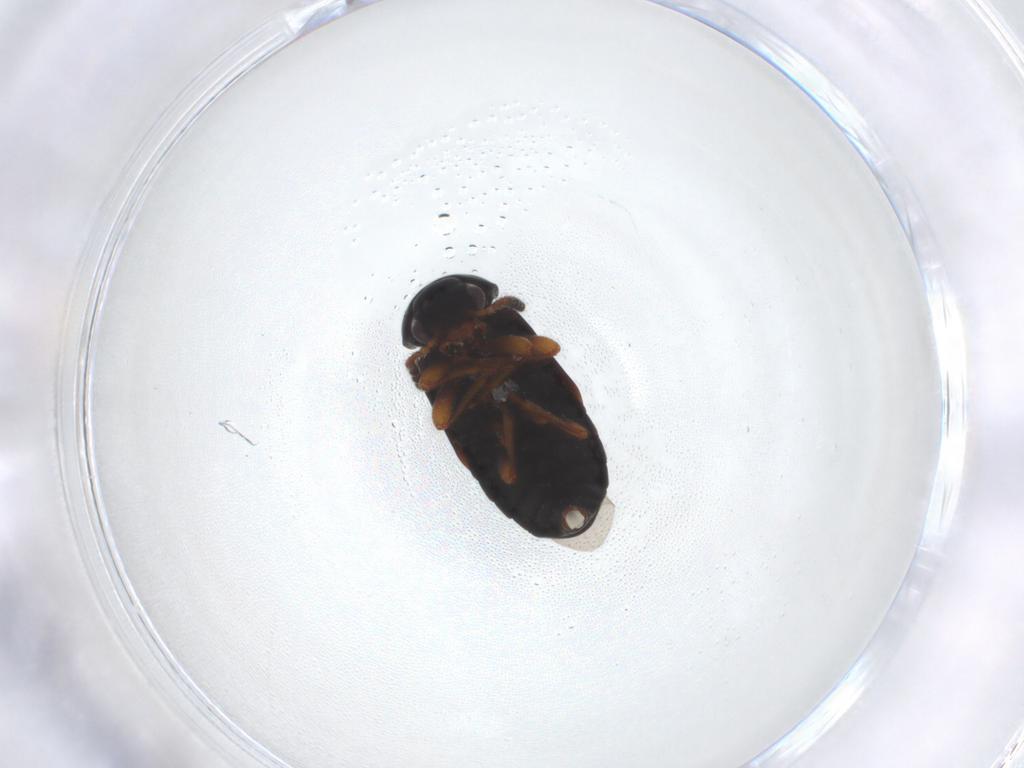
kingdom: Animalia
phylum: Arthropoda
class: Insecta
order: Coleoptera
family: Staphylinidae
